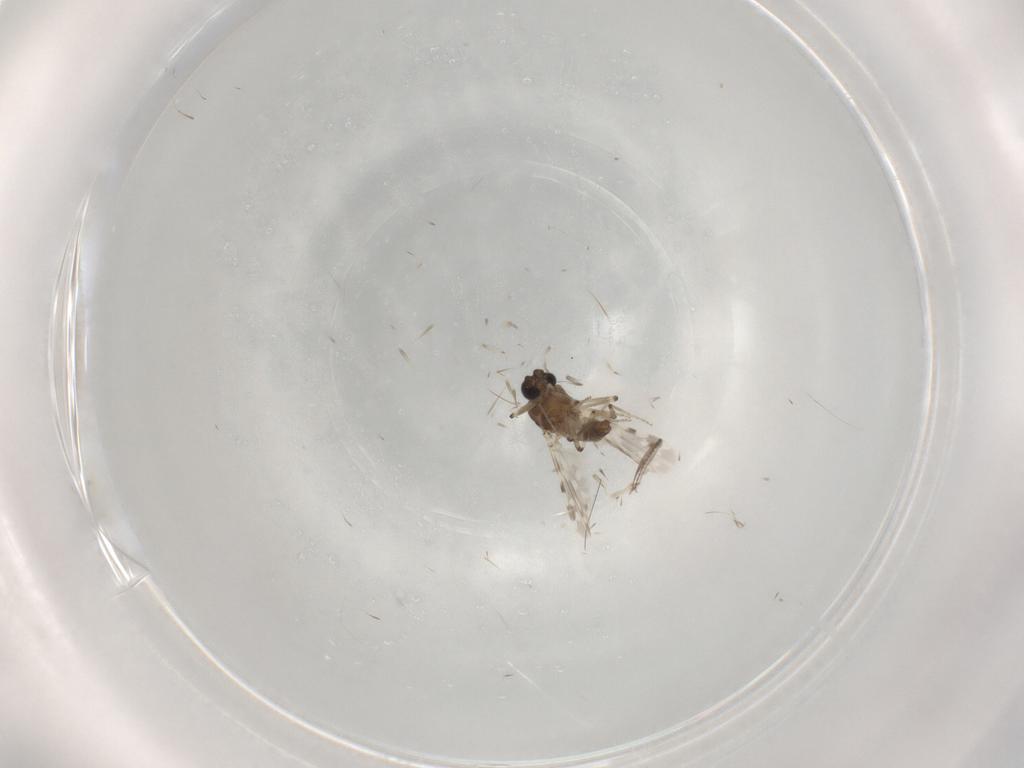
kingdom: Animalia
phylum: Arthropoda
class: Insecta
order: Diptera
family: Ceratopogonidae
